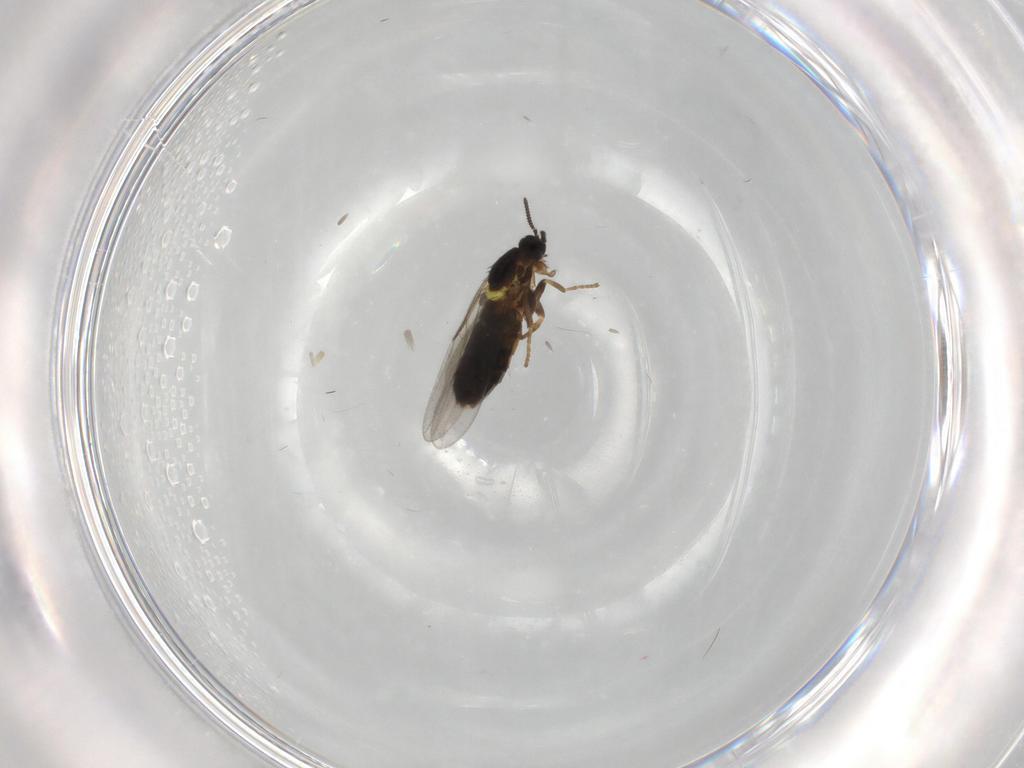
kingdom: Animalia
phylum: Arthropoda
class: Insecta
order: Diptera
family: Scatopsidae
